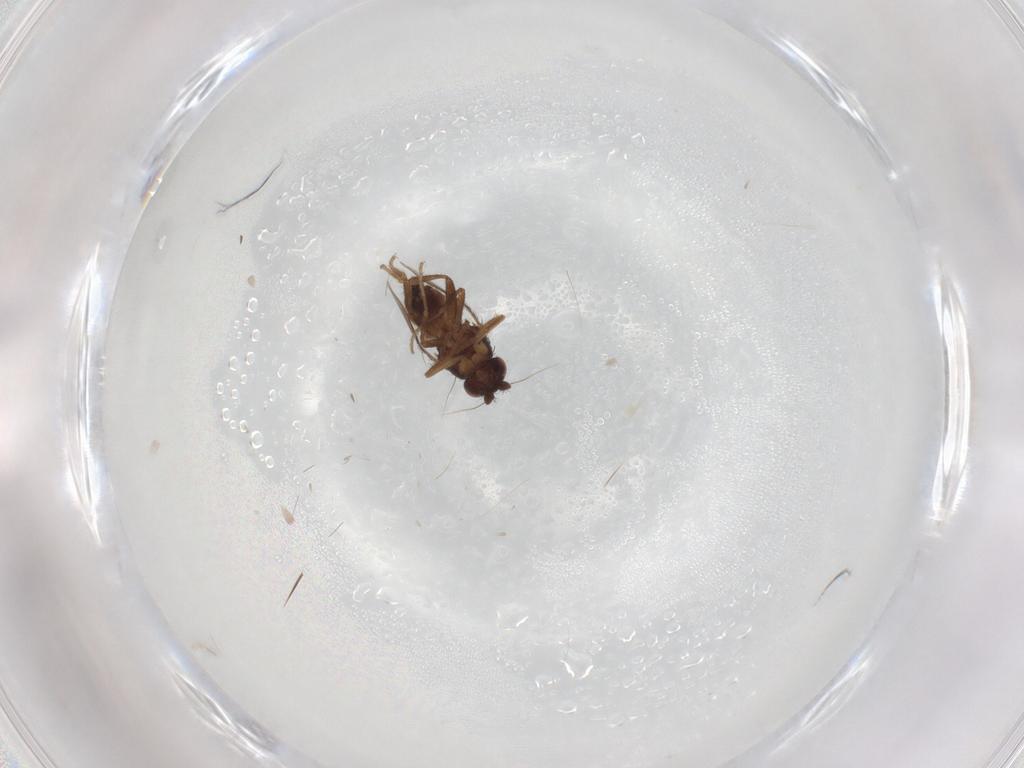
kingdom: Animalia
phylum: Arthropoda
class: Insecta
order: Diptera
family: Sphaeroceridae
